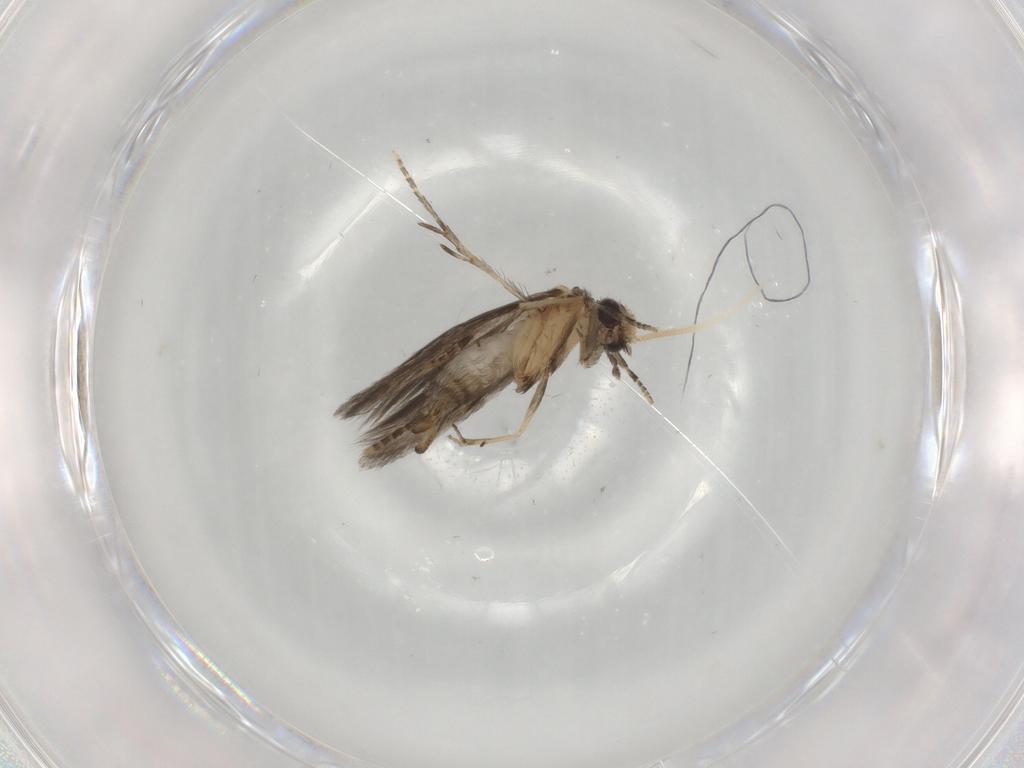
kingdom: Animalia
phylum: Arthropoda
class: Insecta
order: Trichoptera
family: Hydroptilidae
